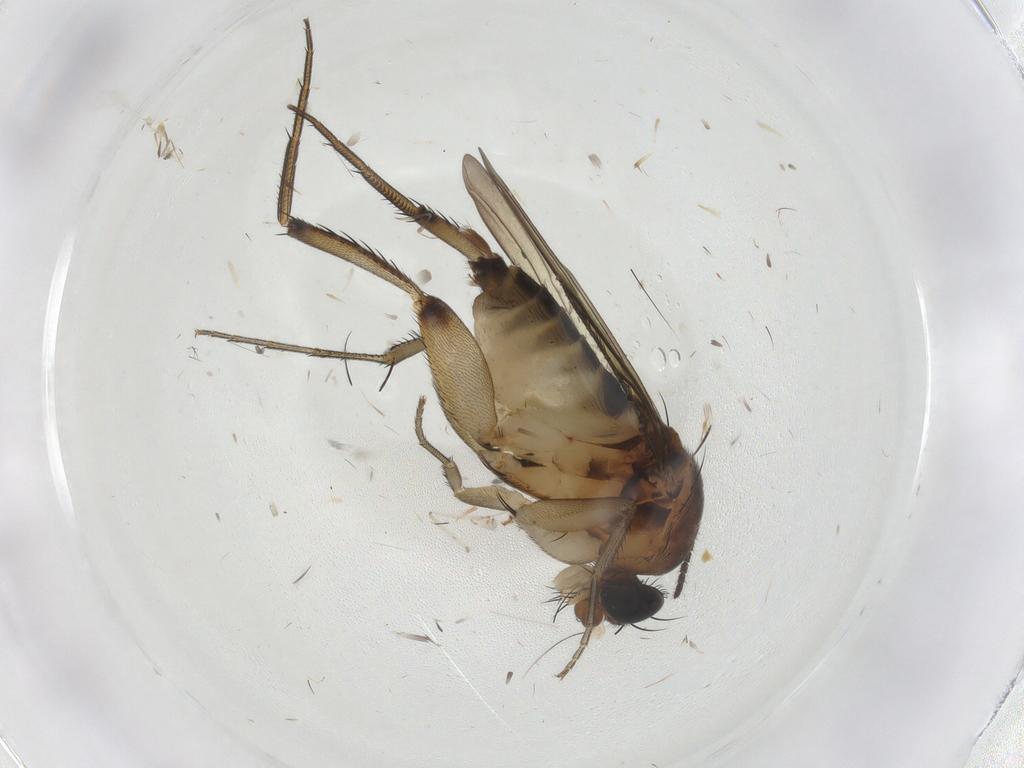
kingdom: Animalia
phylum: Arthropoda
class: Insecta
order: Diptera
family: Phoridae
